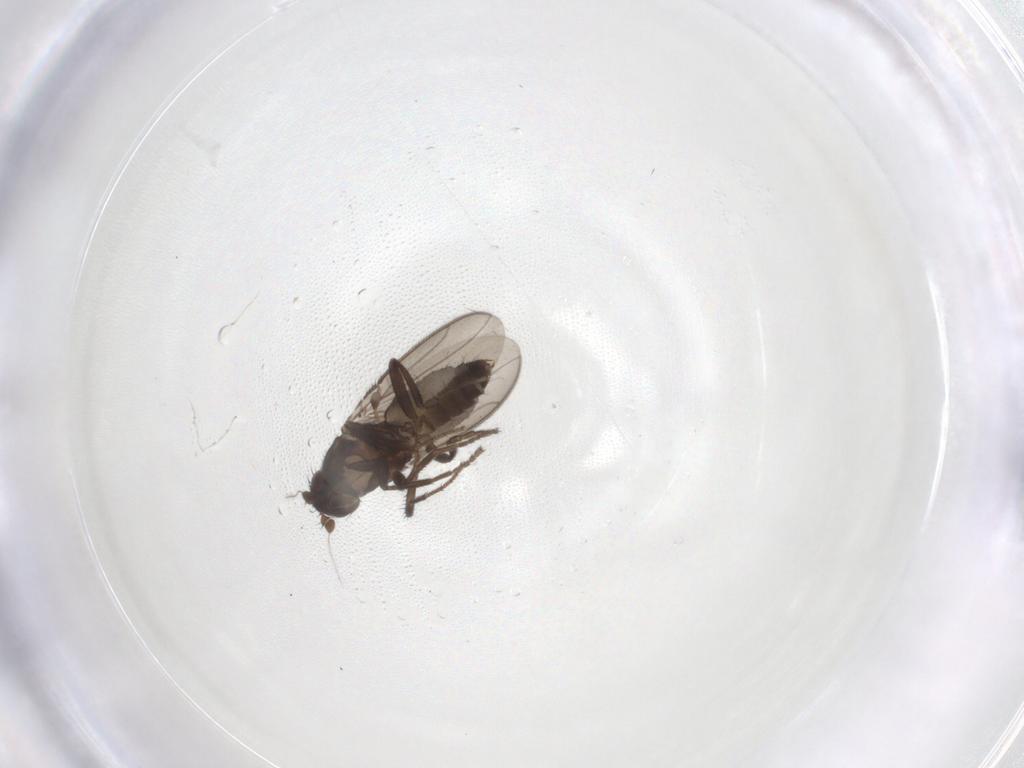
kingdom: Animalia
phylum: Arthropoda
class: Insecta
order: Diptera
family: Sphaeroceridae
